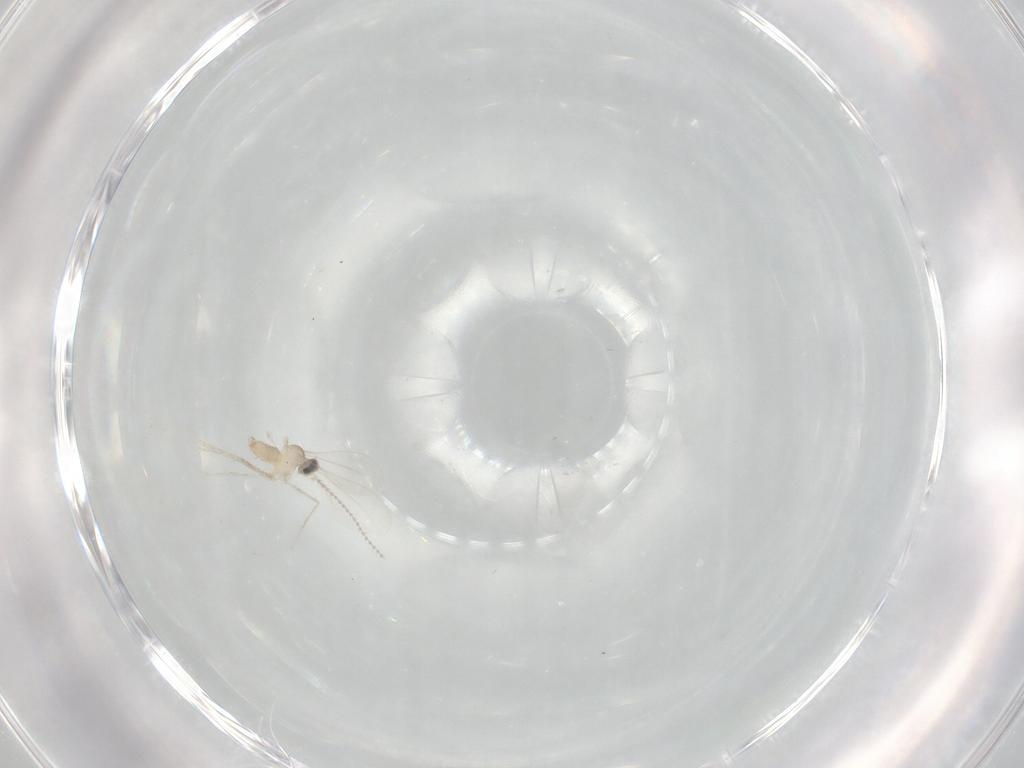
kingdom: Animalia
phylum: Arthropoda
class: Insecta
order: Diptera
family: Cecidomyiidae
